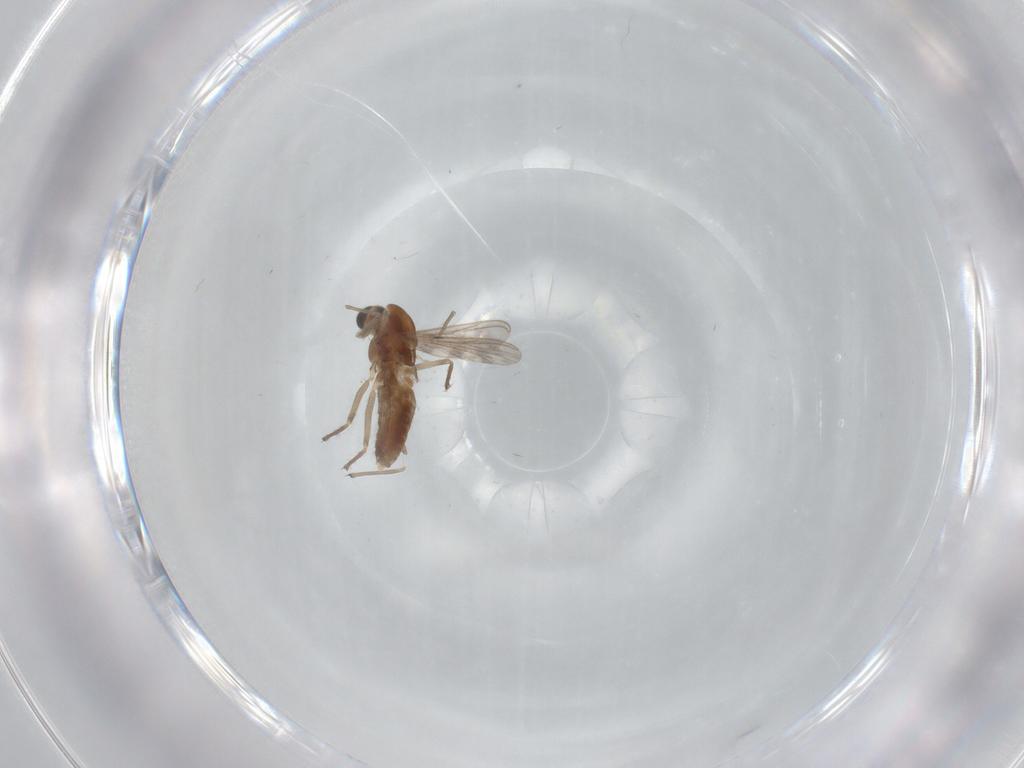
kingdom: Animalia
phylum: Arthropoda
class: Insecta
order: Diptera
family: Chironomidae
